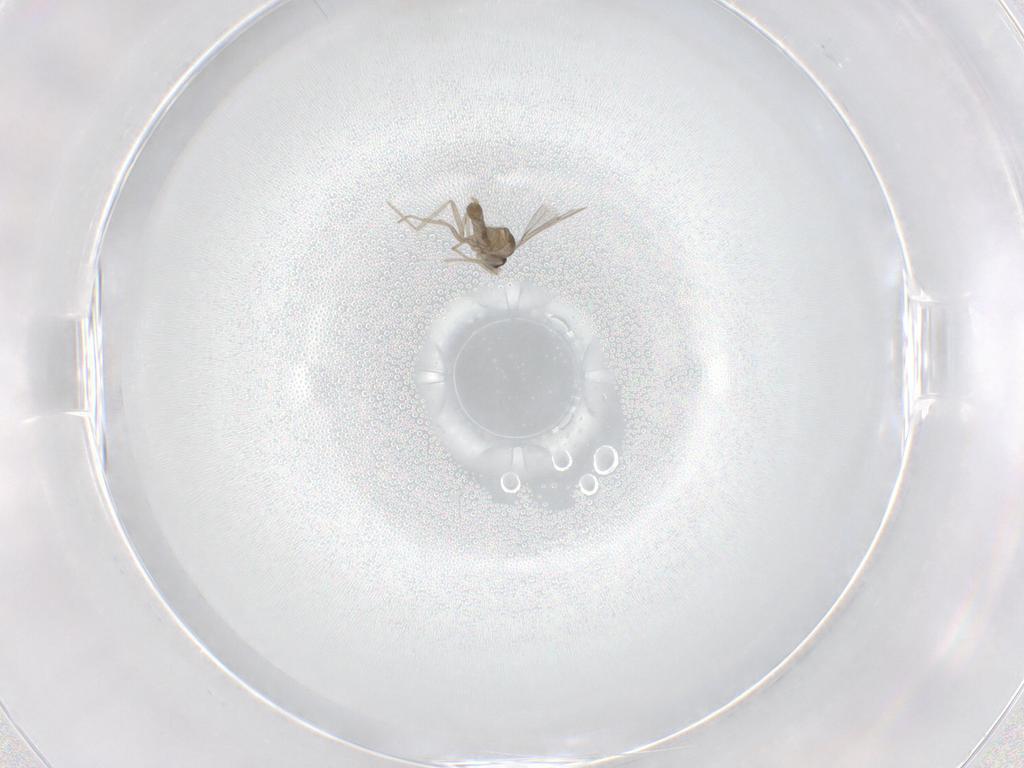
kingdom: Animalia
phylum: Arthropoda
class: Insecta
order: Diptera
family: Cecidomyiidae
